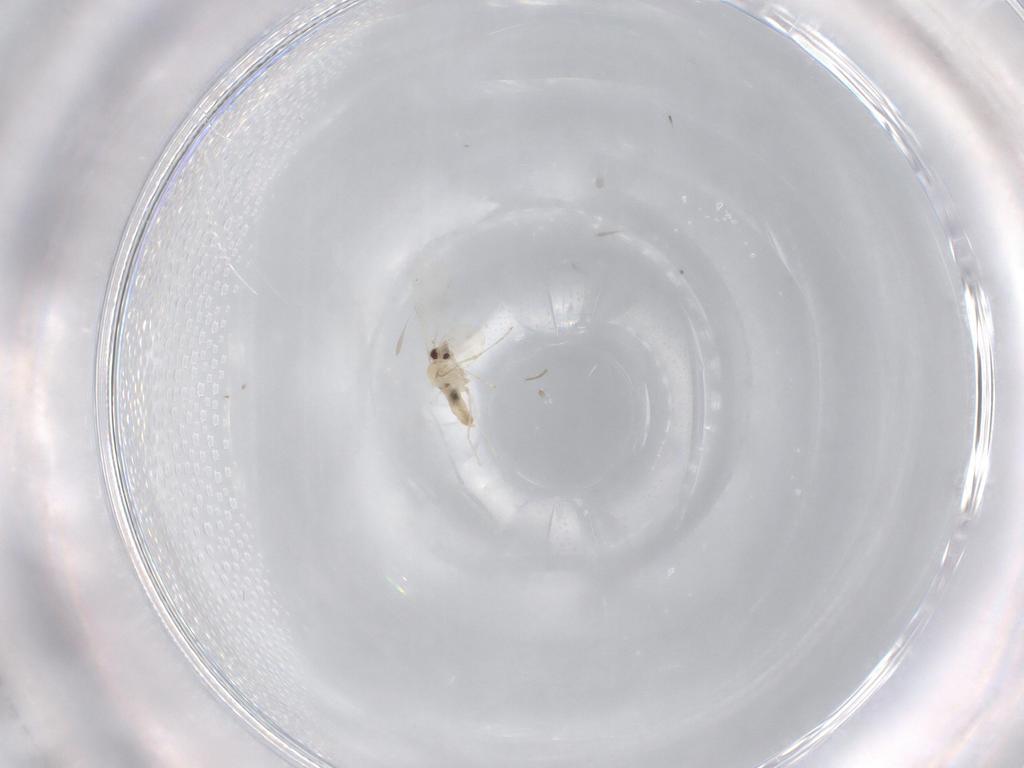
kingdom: Animalia
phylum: Arthropoda
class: Insecta
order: Diptera
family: Cecidomyiidae
